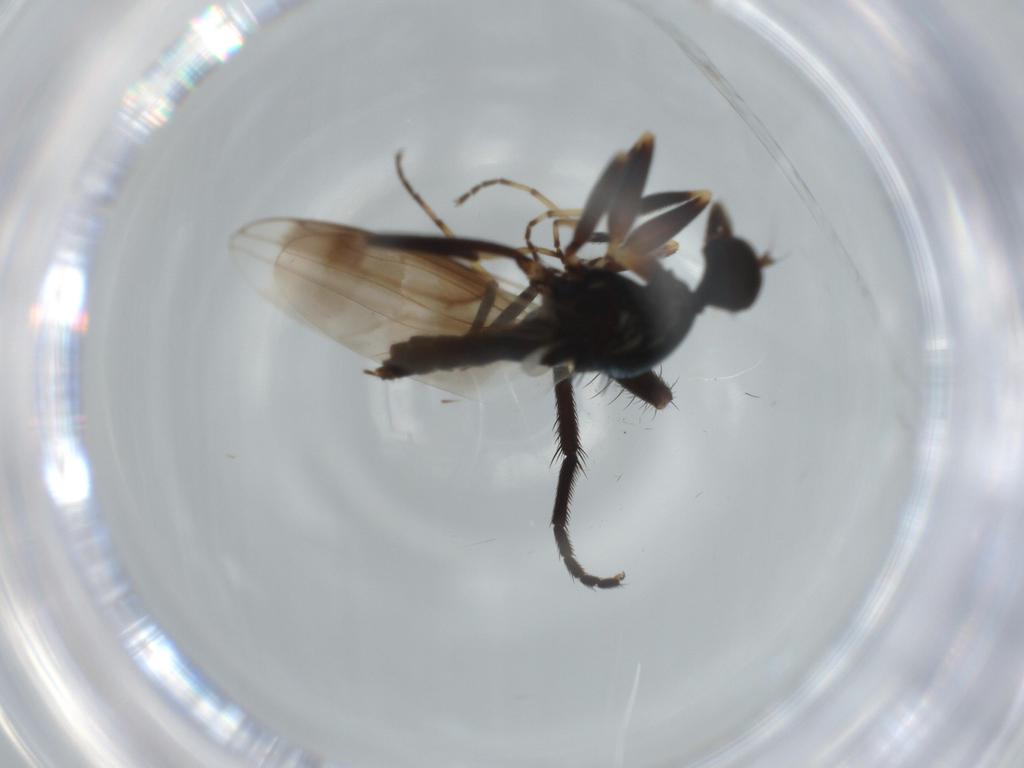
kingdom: Animalia
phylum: Arthropoda
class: Insecta
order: Diptera
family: Hybotidae
